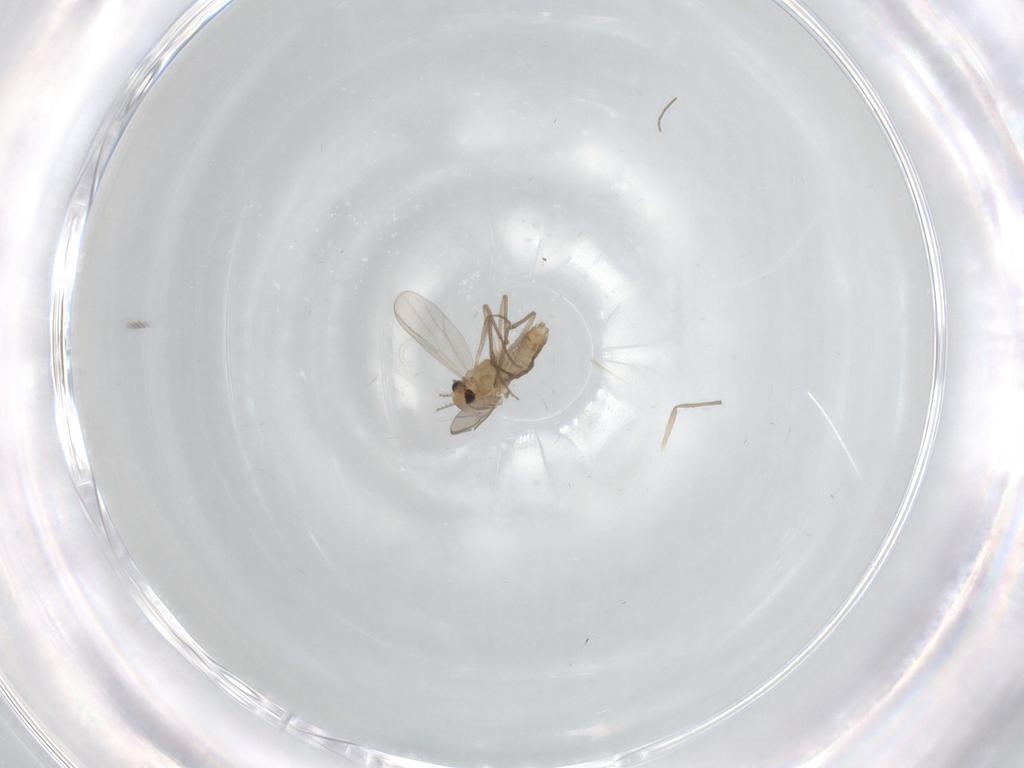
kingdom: Animalia
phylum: Arthropoda
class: Insecta
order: Diptera
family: Chironomidae
